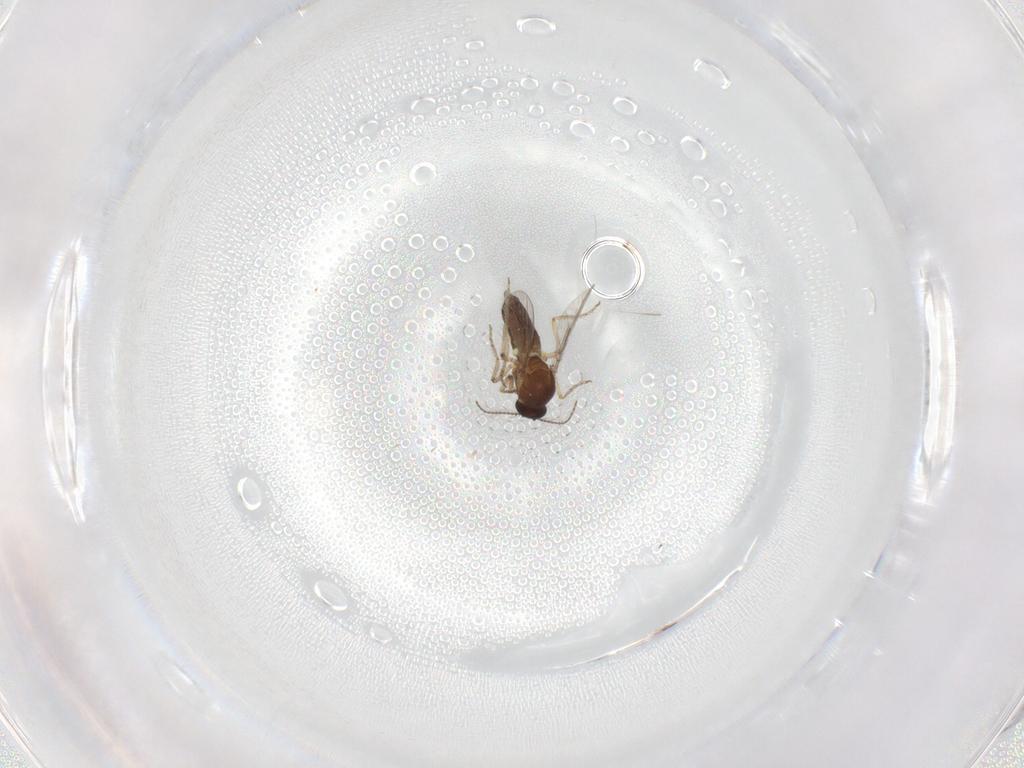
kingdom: Animalia
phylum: Arthropoda
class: Insecta
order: Diptera
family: Ceratopogonidae
